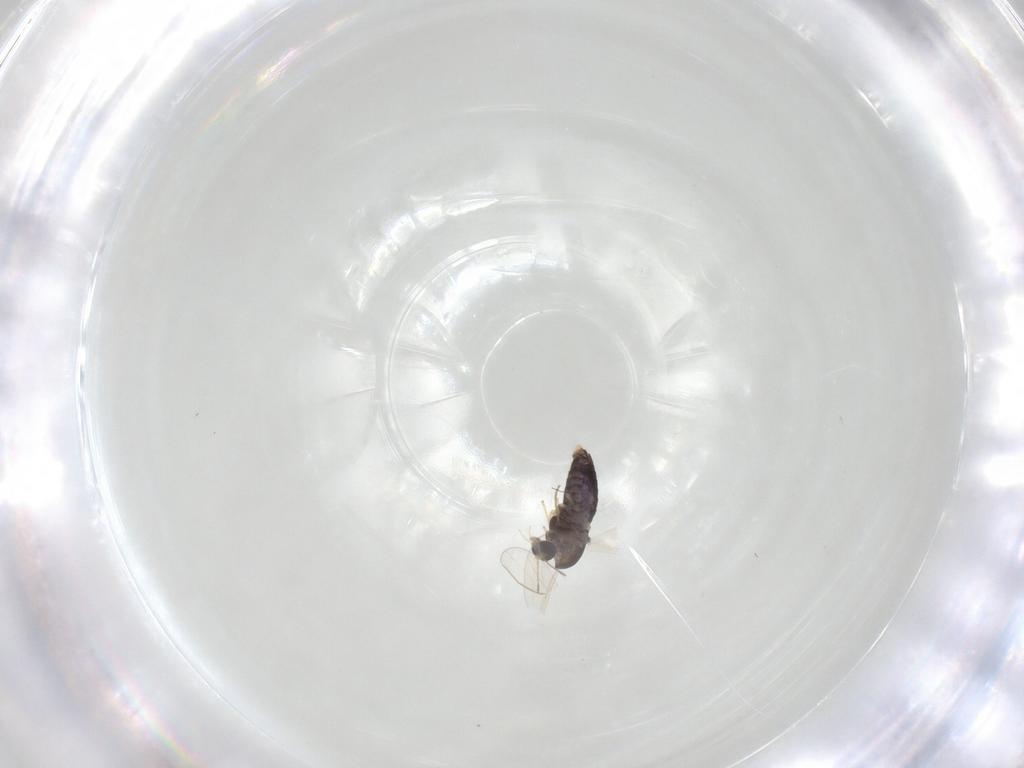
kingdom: Animalia
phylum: Arthropoda
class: Insecta
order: Diptera
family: Chironomidae
